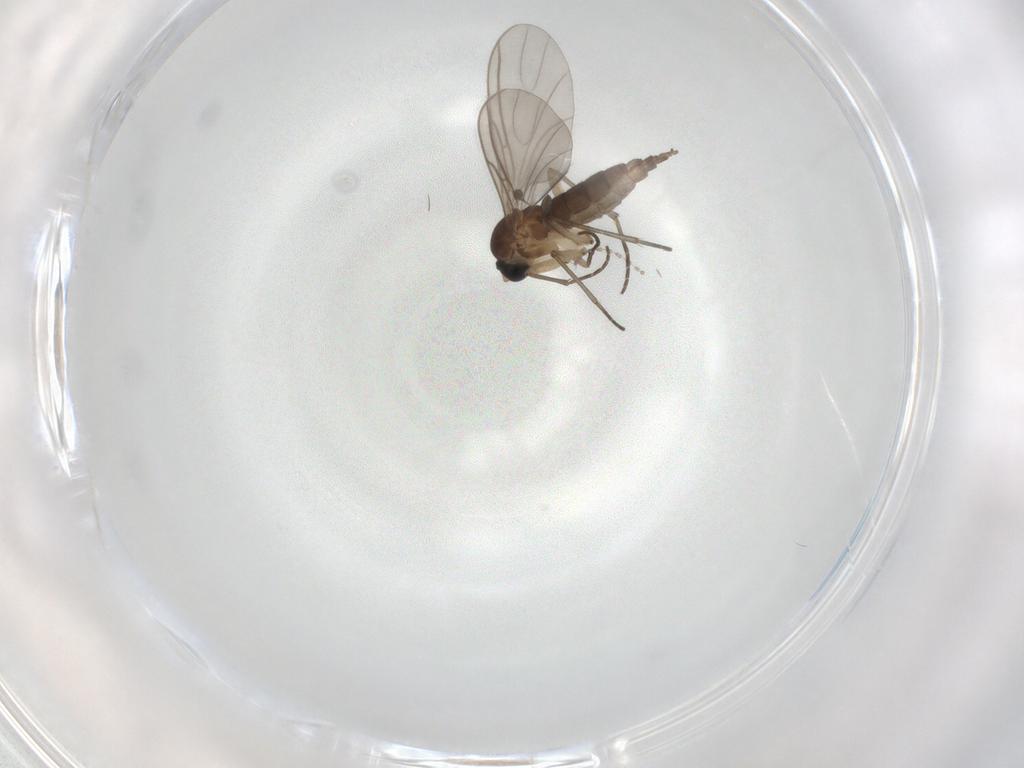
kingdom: Animalia
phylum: Arthropoda
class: Insecta
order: Diptera
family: Sciaridae
